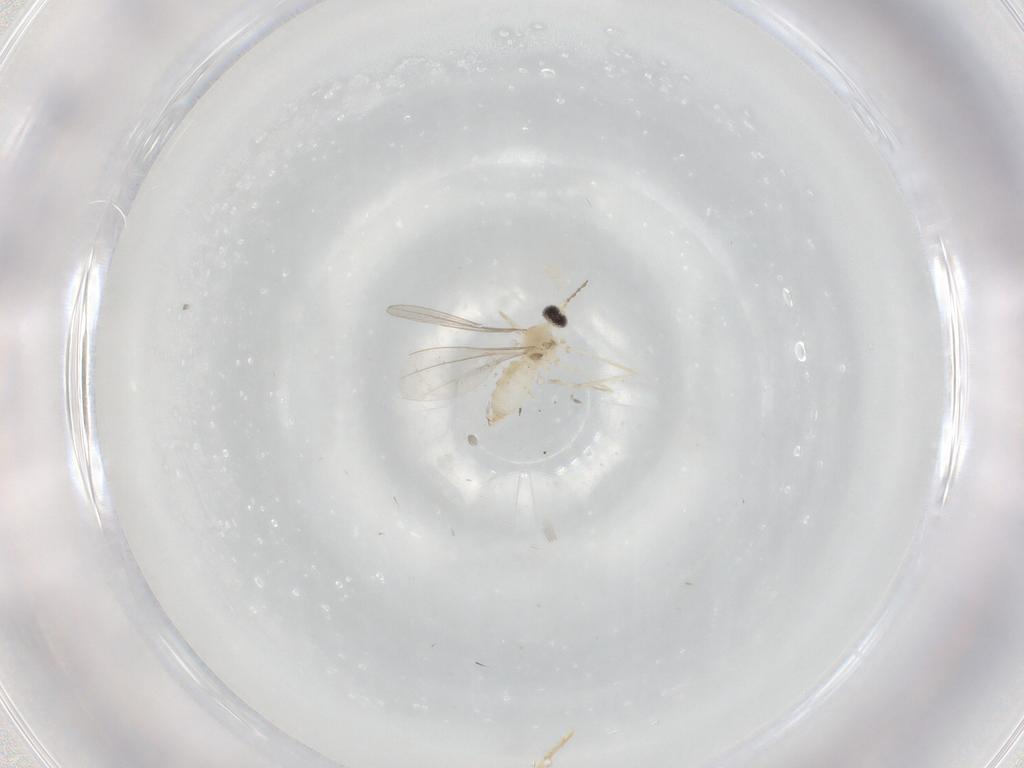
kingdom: Animalia
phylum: Arthropoda
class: Insecta
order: Diptera
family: Cecidomyiidae
